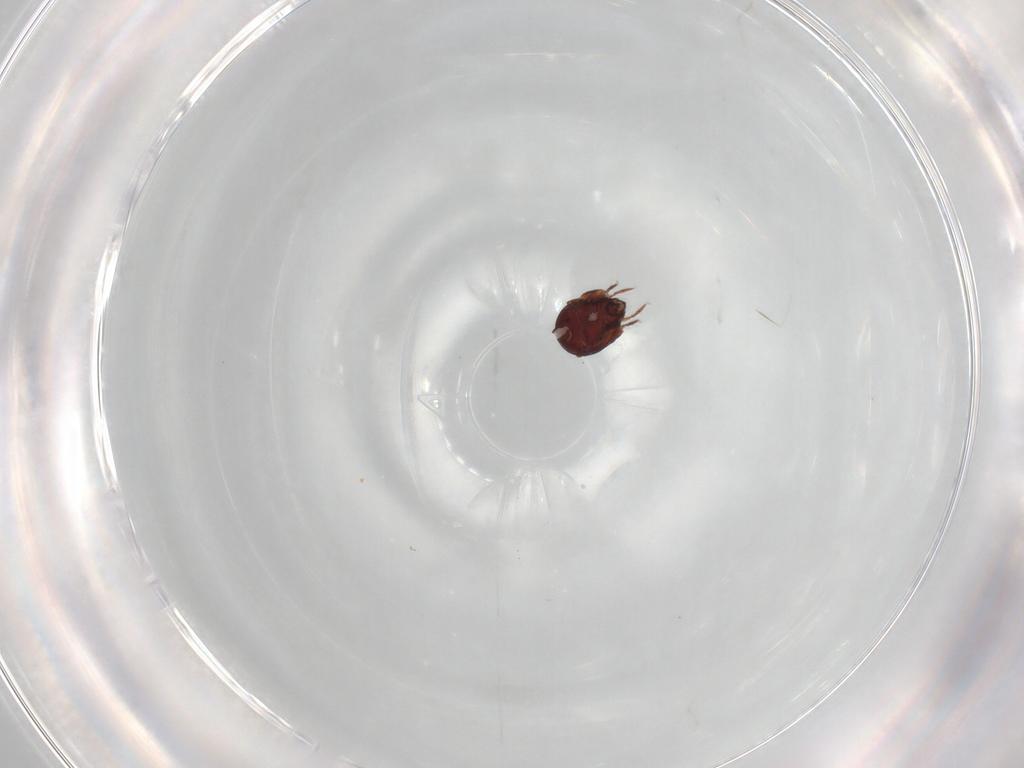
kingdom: Animalia
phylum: Arthropoda
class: Arachnida
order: Sarcoptiformes
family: Humerobatidae
